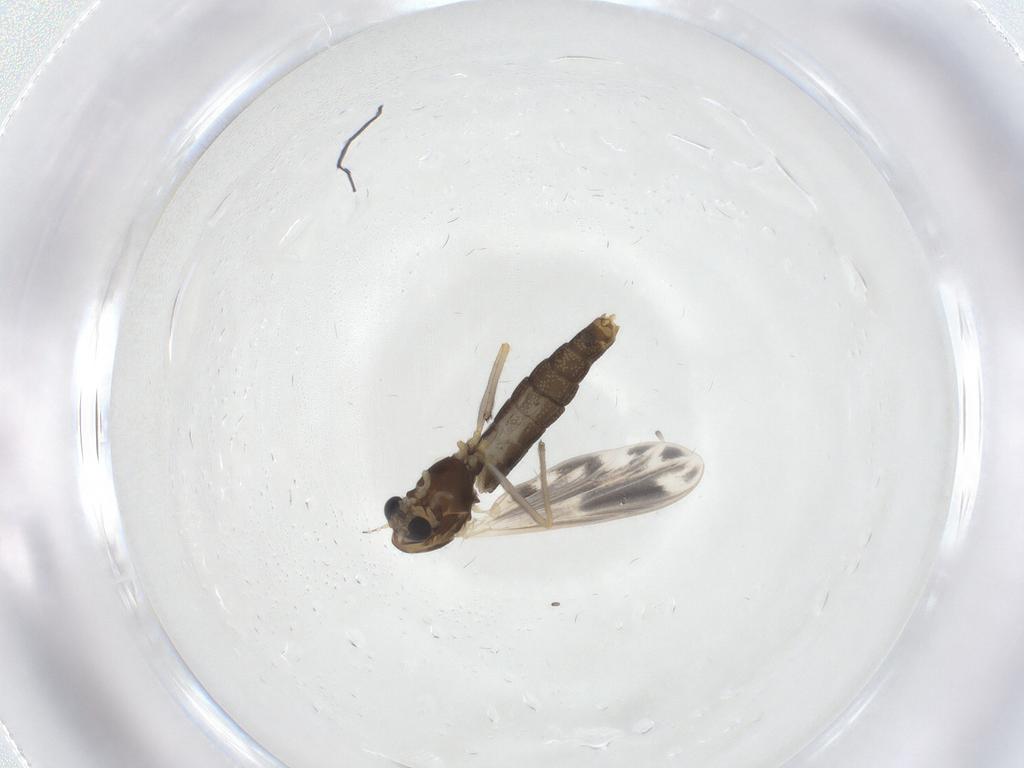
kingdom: Animalia
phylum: Arthropoda
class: Insecta
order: Diptera
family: Chironomidae
